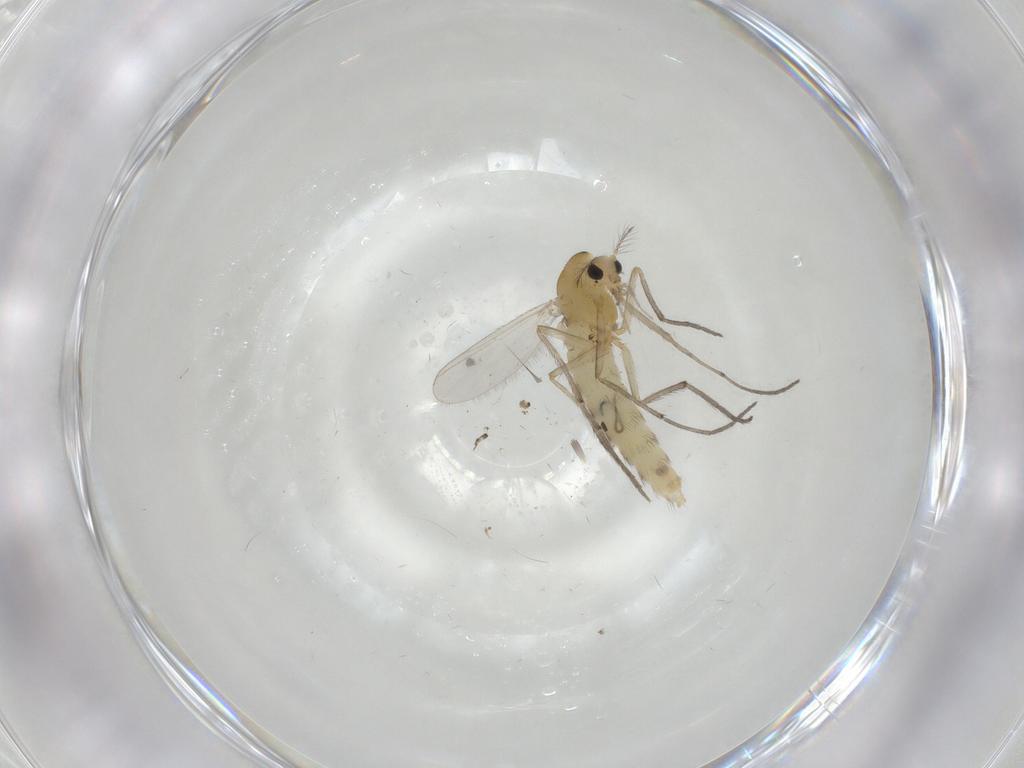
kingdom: Animalia
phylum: Arthropoda
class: Insecta
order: Diptera
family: Chironomidae
